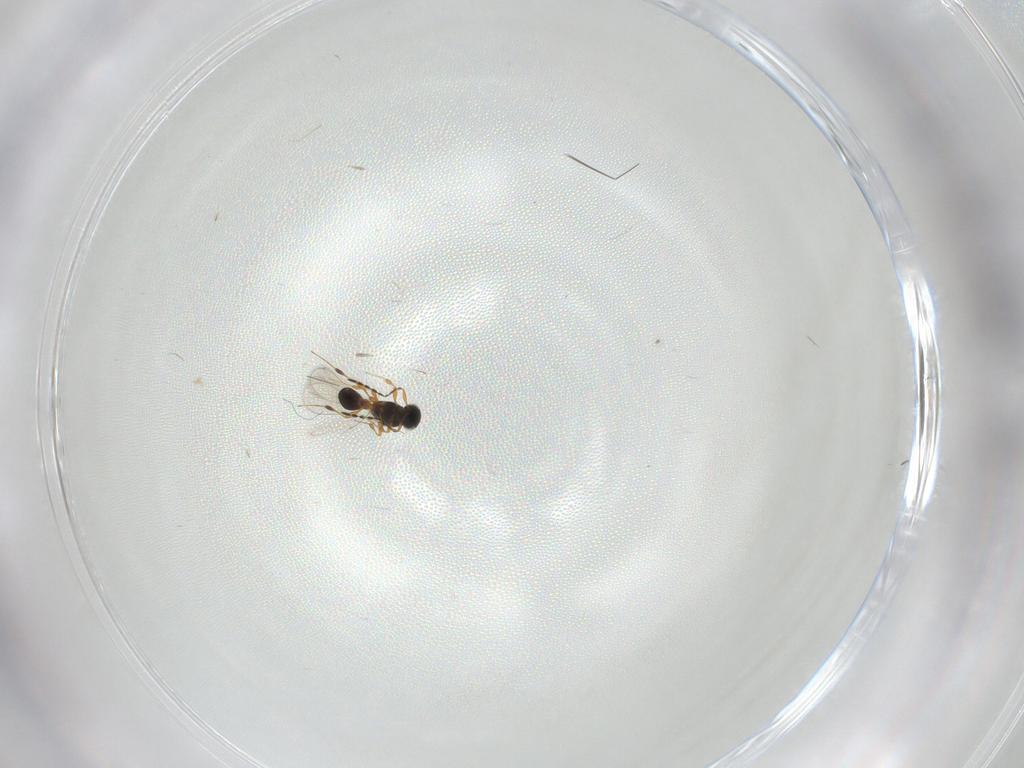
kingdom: Animalia
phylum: Arthropoda
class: Insecta
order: Hymenoptera
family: Platygastridae
